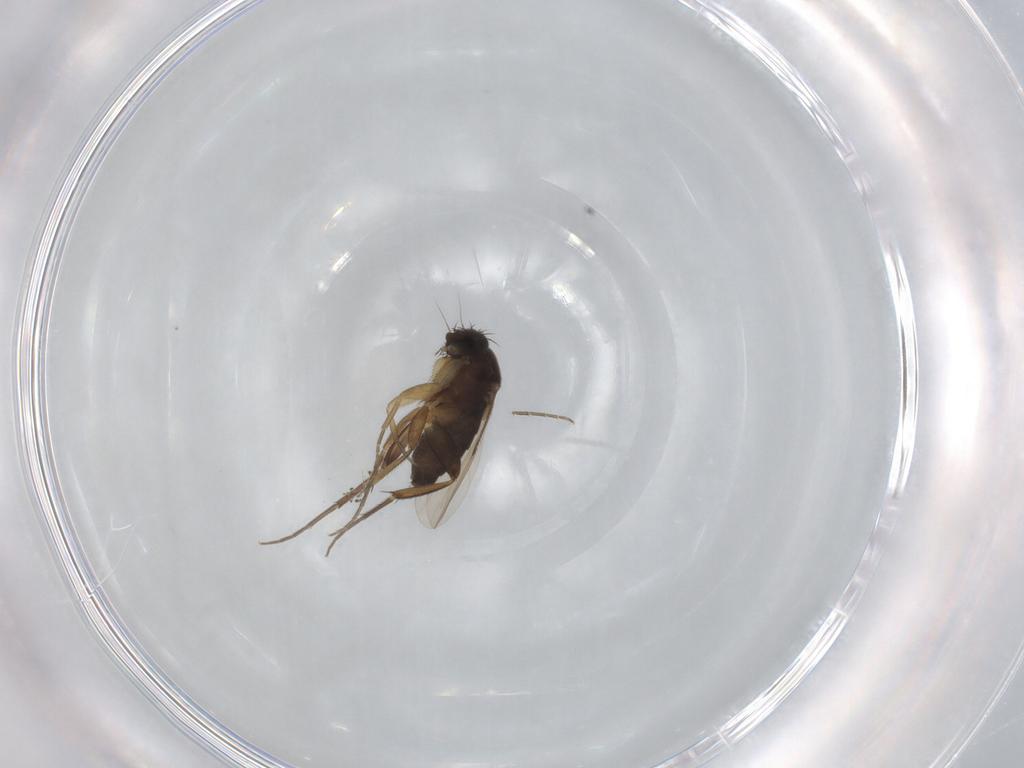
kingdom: Animalia
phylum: Arthropoda
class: Insecta
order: Diptera
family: Phoridae
